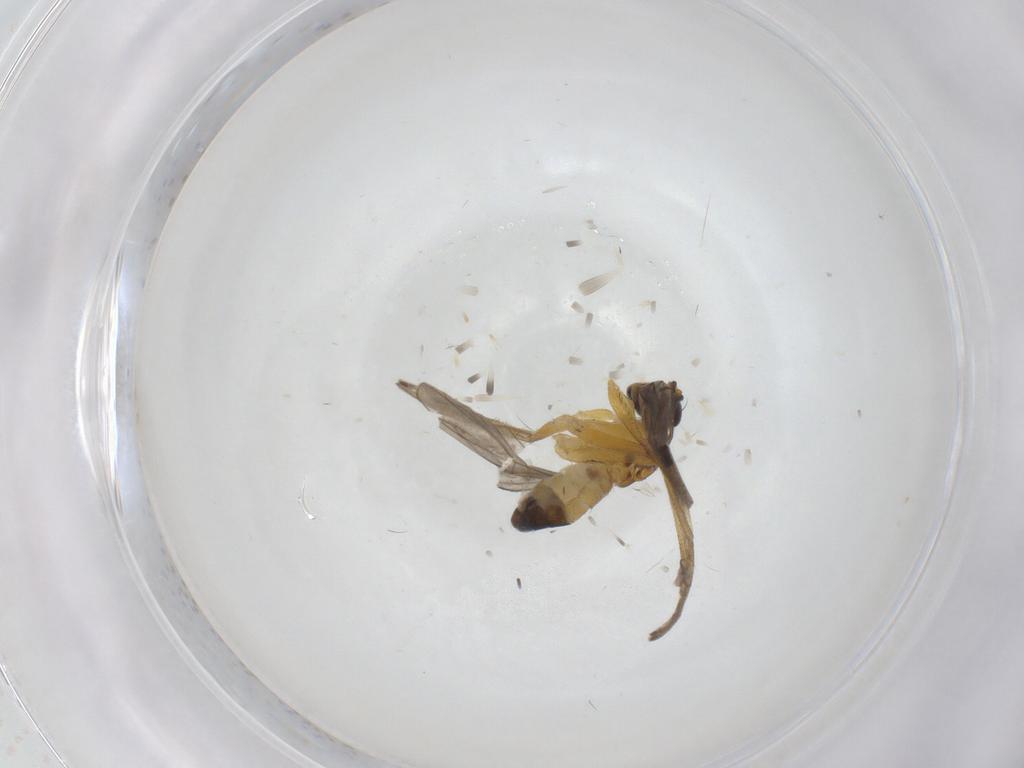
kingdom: Animalia
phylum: Arthropoda
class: Insecta
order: Diptera
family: Dolichopodidae
